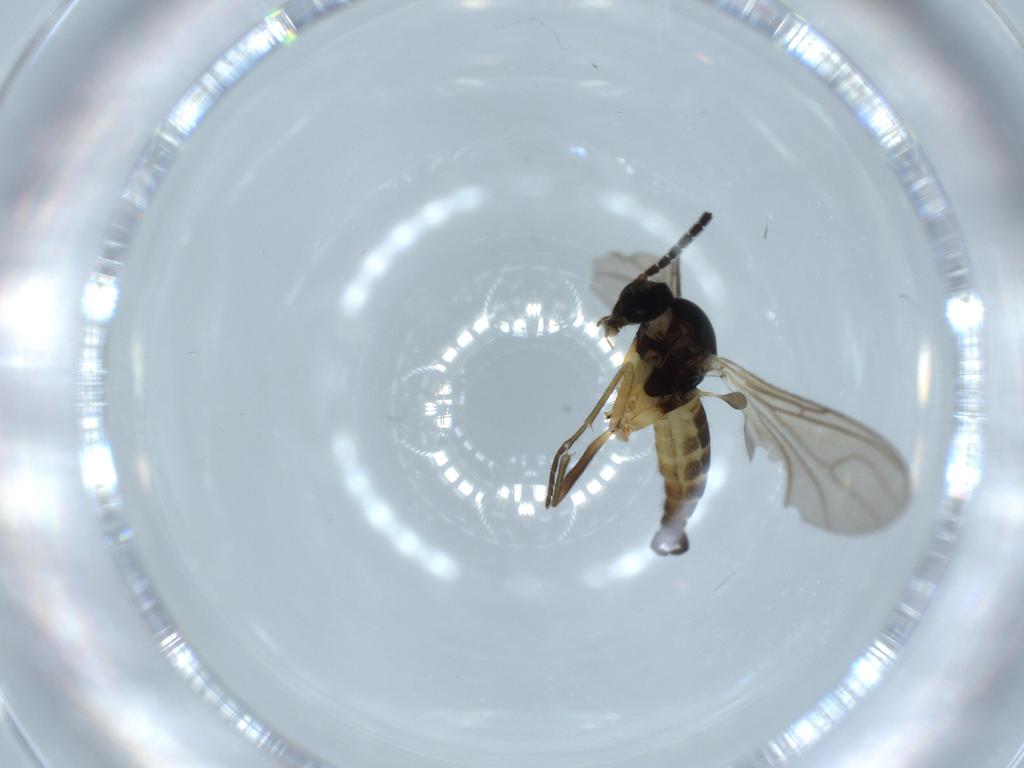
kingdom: Animalia
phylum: Arthropoda
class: Insecta
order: Diptera
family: Sciaridae
